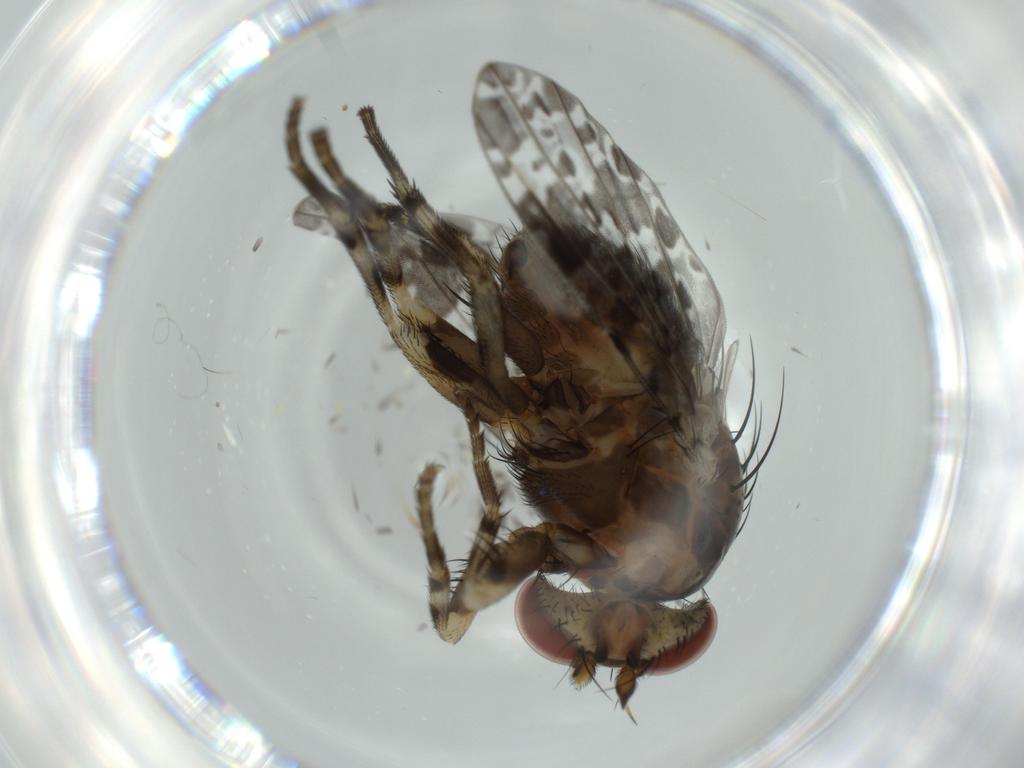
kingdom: Animalia
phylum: Arthropoda
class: Insecta
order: Diptera
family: Odiniidae
